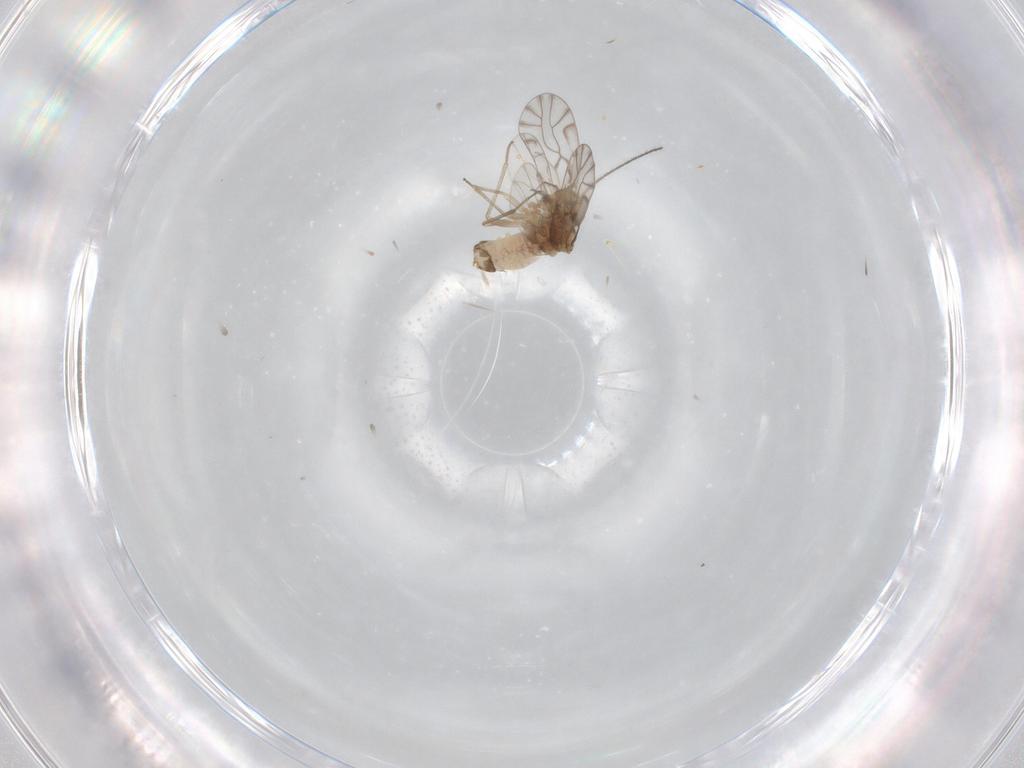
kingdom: Animalia
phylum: Arthropoda
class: Insecta
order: Psocodea
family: Lachesillidae
